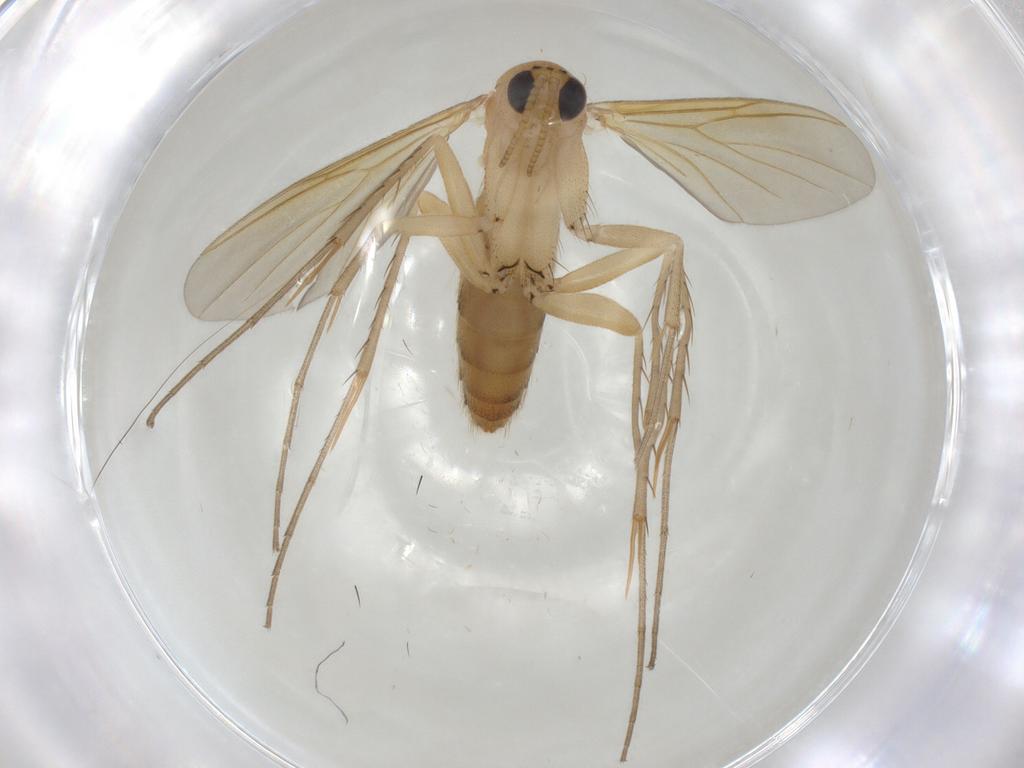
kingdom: Animalia
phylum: Arthropoda
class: Insecta
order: Diptera
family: Mycetophilidae
